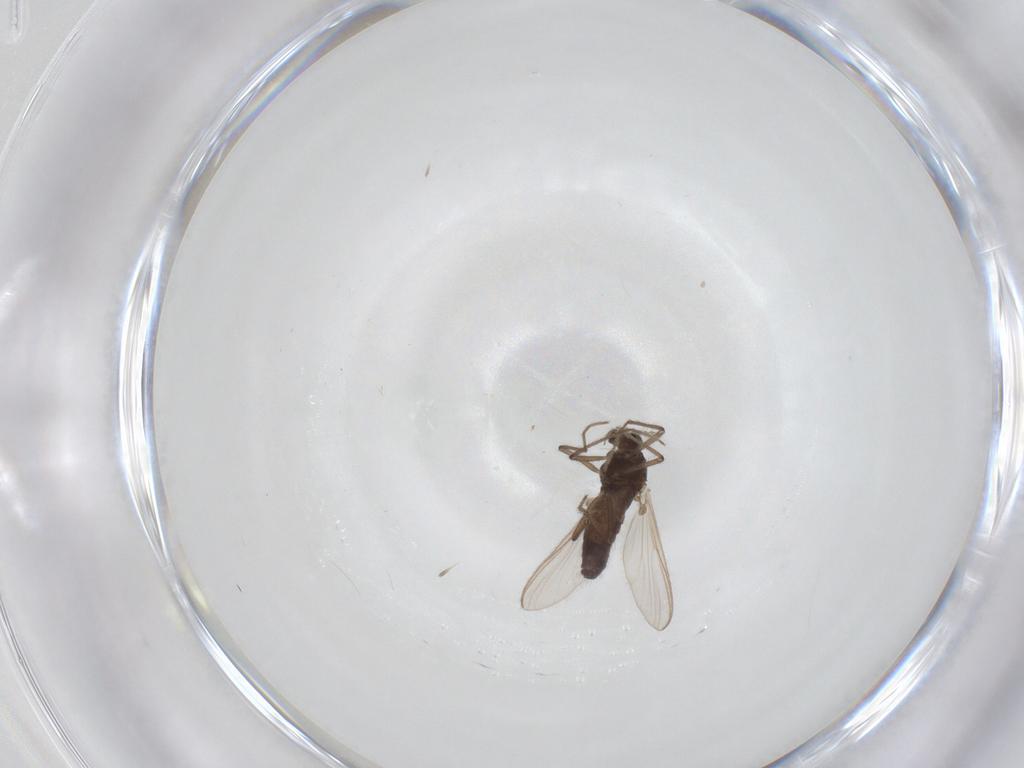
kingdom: Animalia
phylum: Arthropoda
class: Insecta
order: Diptera
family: Chironomidae
